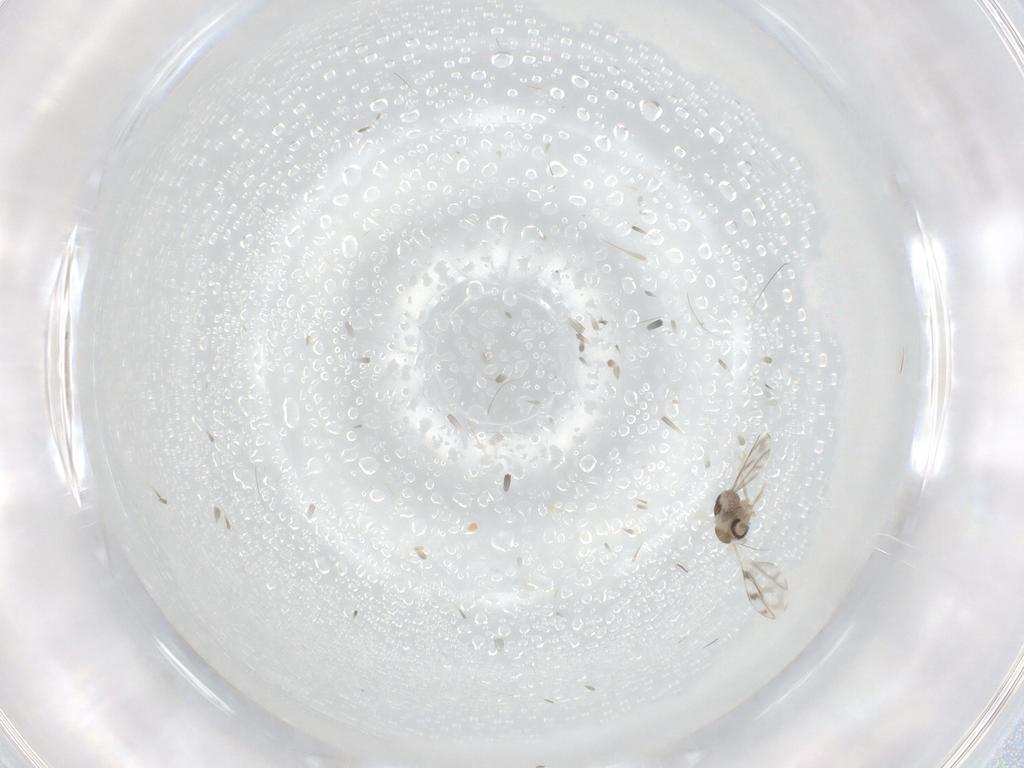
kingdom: Animalia
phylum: Arthropoda
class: Insecta
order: Diptera
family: Cecidomyiidae
